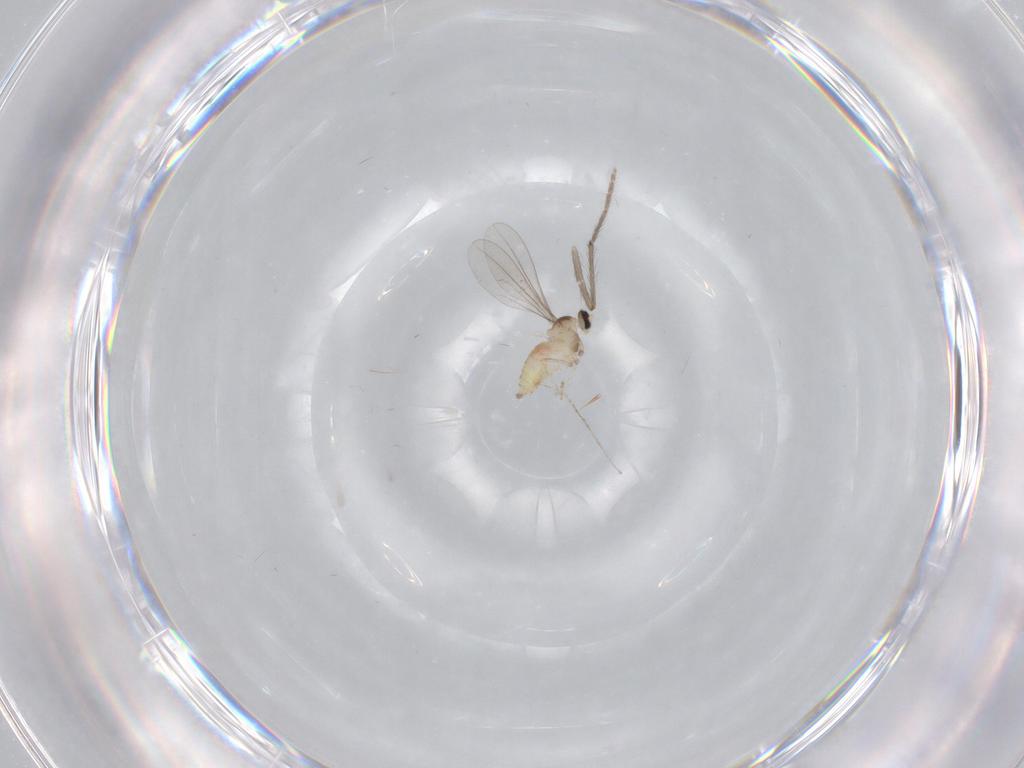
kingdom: Animalia
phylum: Arthropoda
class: Insecta
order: Diptera
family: Cecidomyiidae
